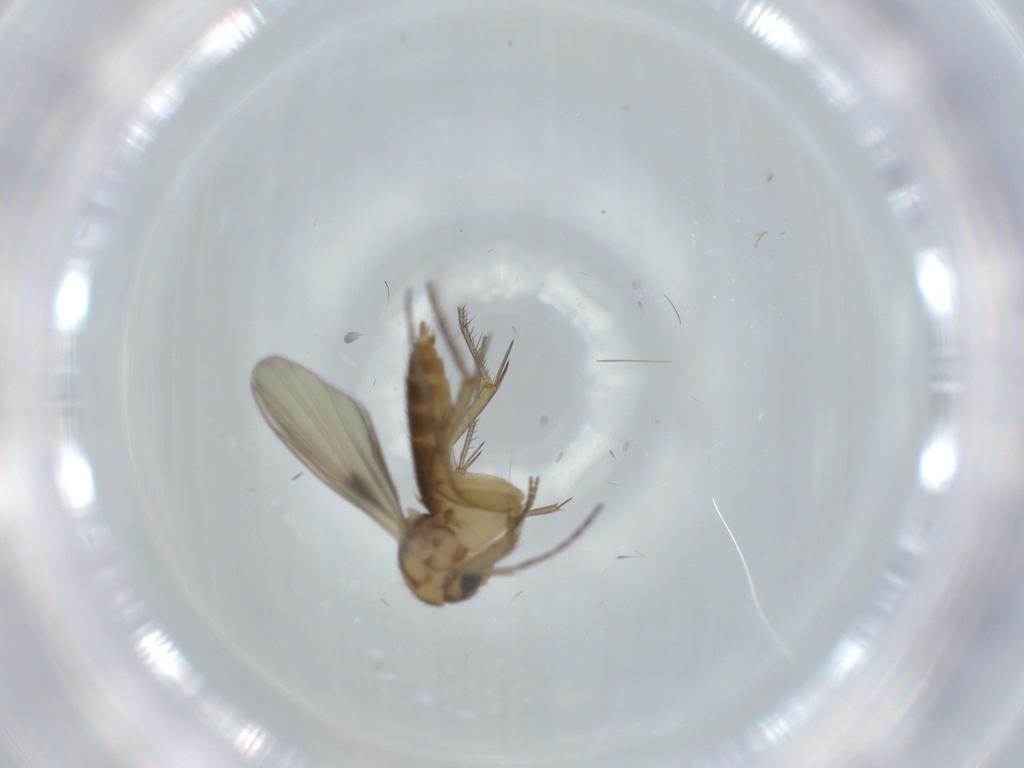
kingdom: Animalia
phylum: Arthropoda
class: Insecta
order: Diptera
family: Mycetophilidae
